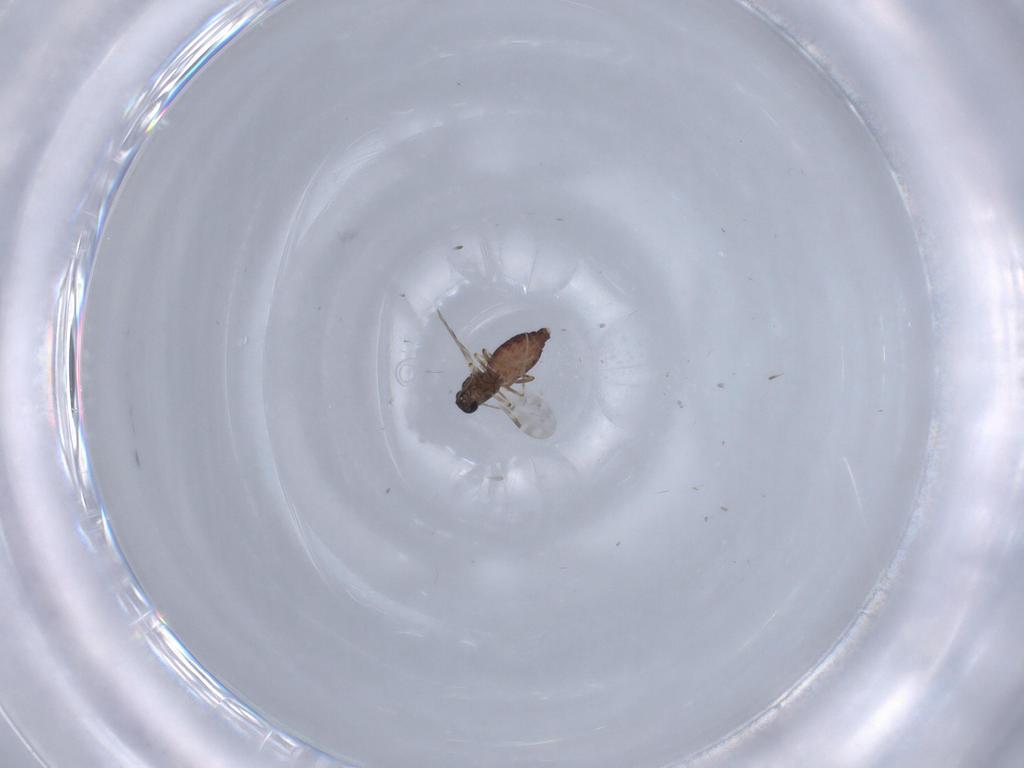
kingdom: Animalia
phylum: Arthropoda
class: Insecta
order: Diptera
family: Ceratopogonidae
